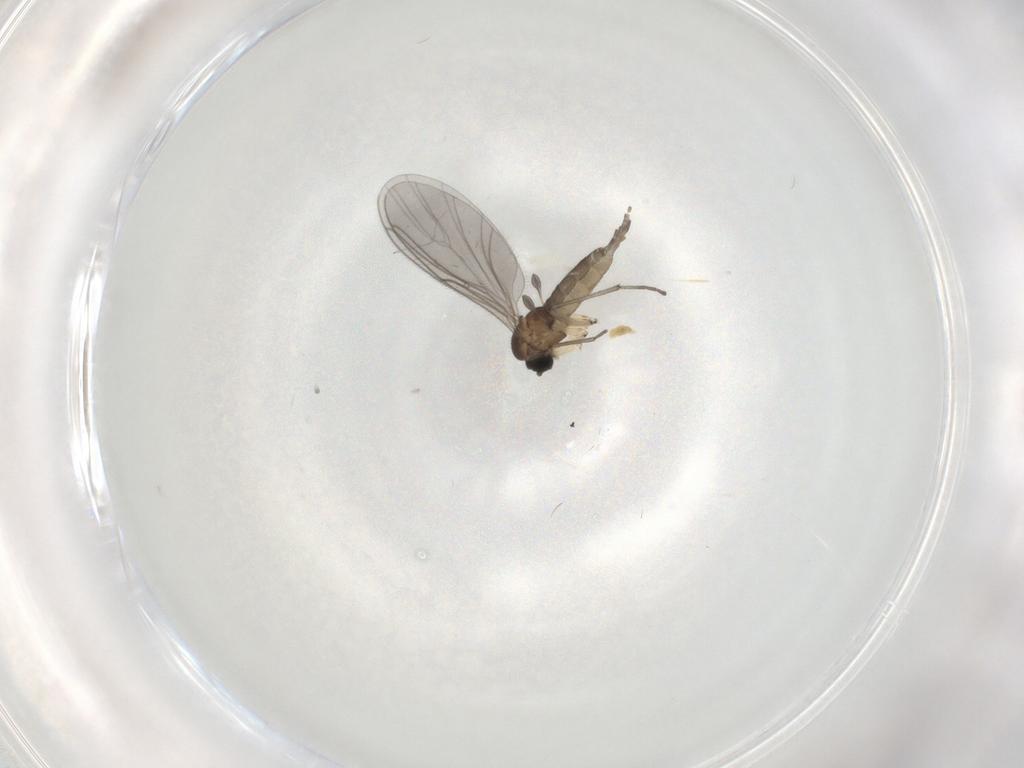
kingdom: Animalia
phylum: Arthropoda
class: Insecta
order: Diptera
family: Sciaridae
